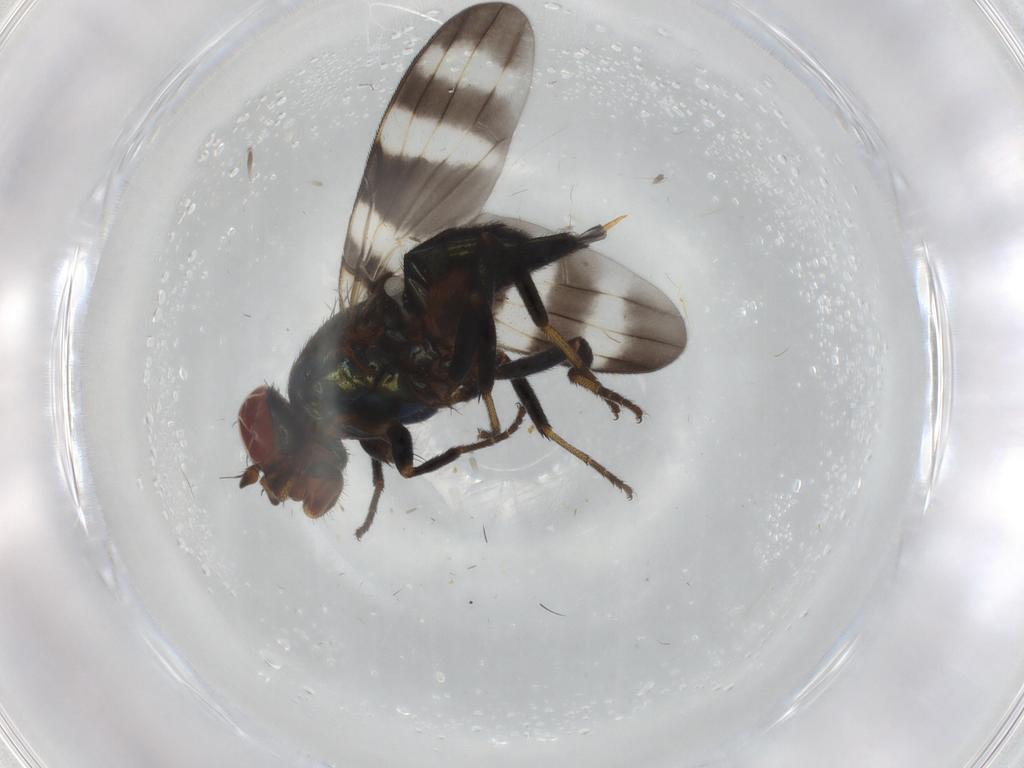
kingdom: Animalia
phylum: Arthropoda
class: Insecta
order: Diptera
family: Ulidiidae
